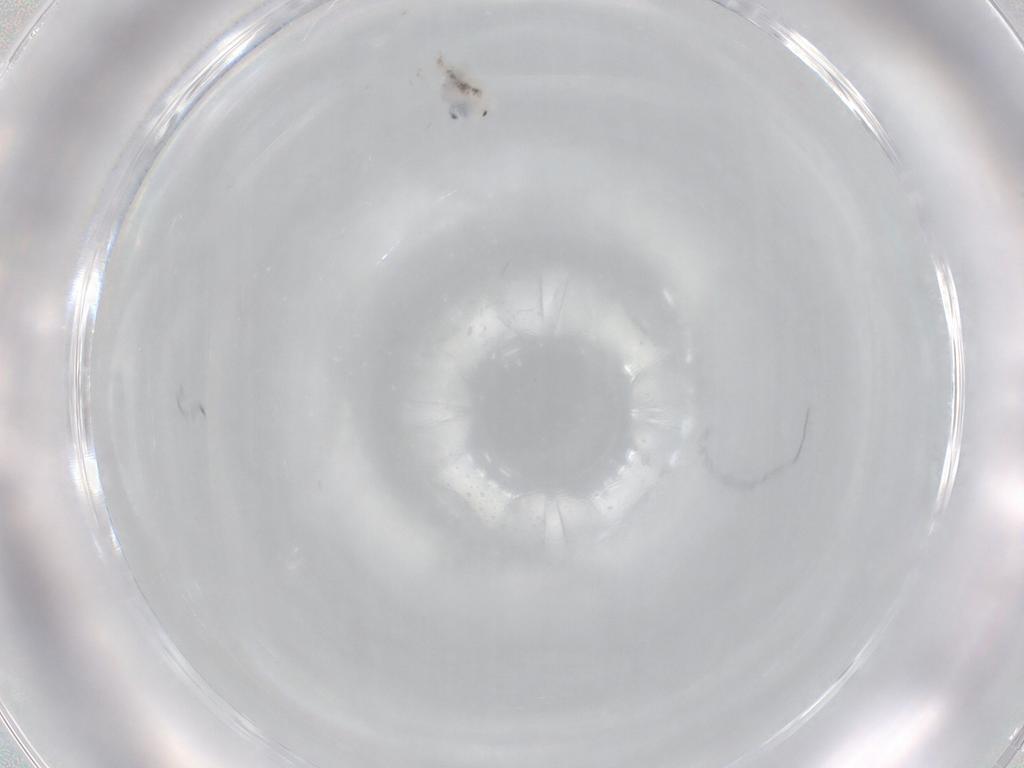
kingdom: Animalia
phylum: Arthropoda
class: Collembola
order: Entomobryomorpha
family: Entomobryidae
